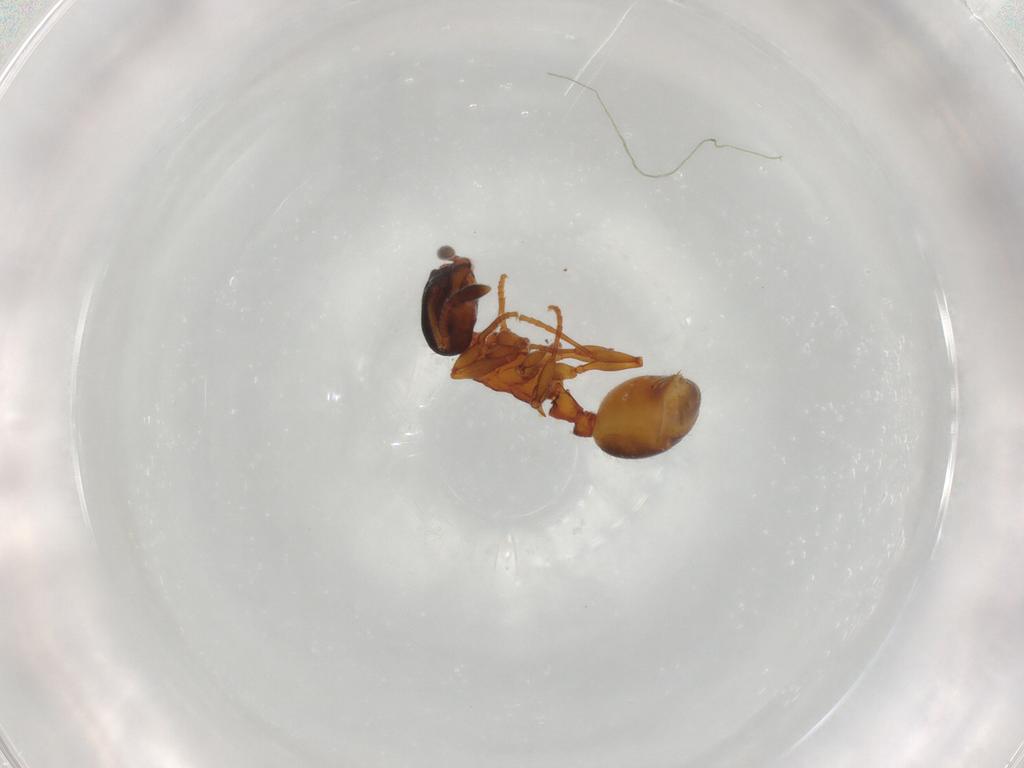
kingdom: Animalia
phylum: Arthropoda
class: Insecta
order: Hymenoptera
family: Formicidae
